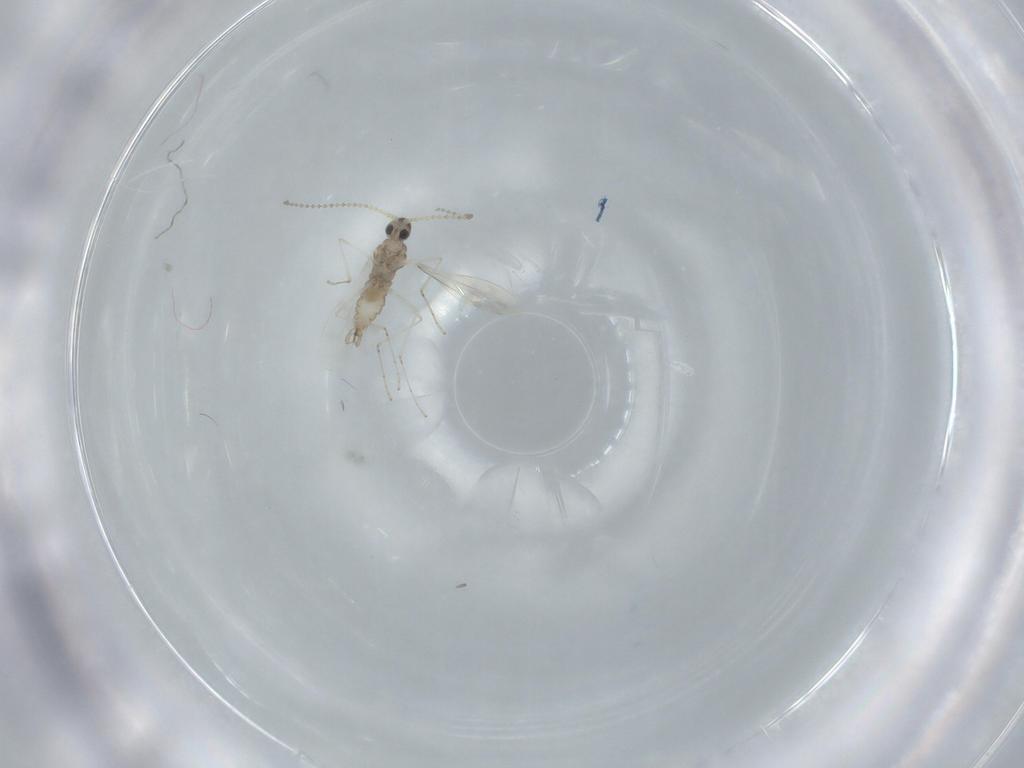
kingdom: Animalia
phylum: Arthropoda
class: Insecta
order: Diptera
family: Cecidomyiidae
